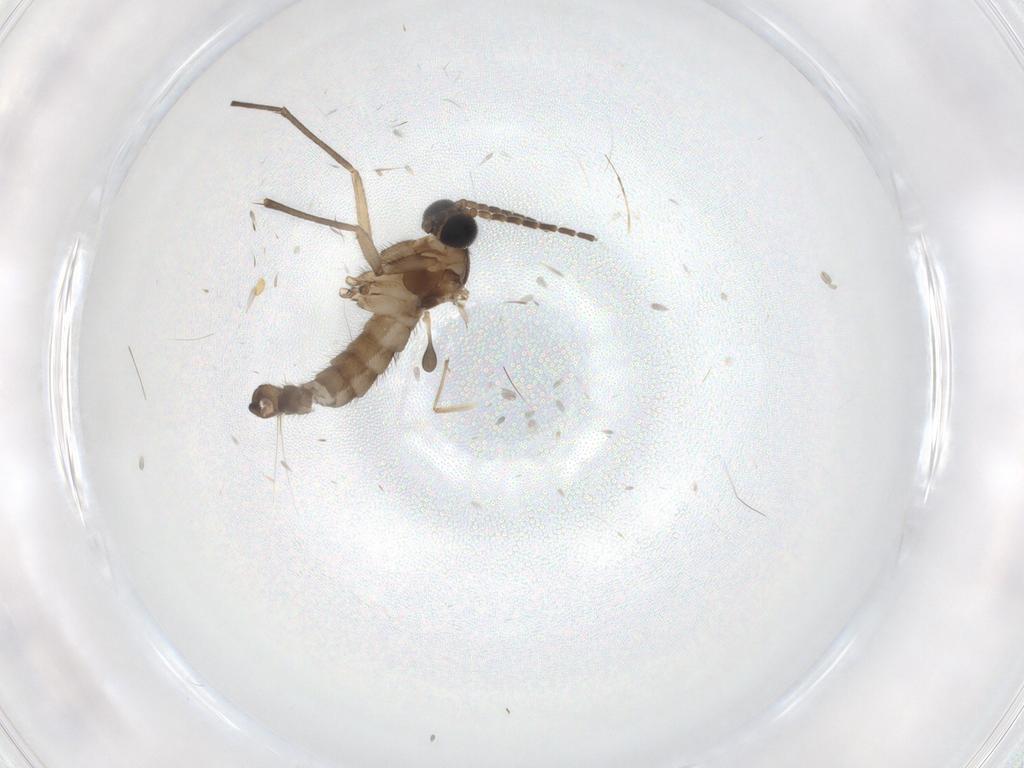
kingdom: Animalia
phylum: Arthropoda
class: Insecta
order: Diptera
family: Sciaridae
